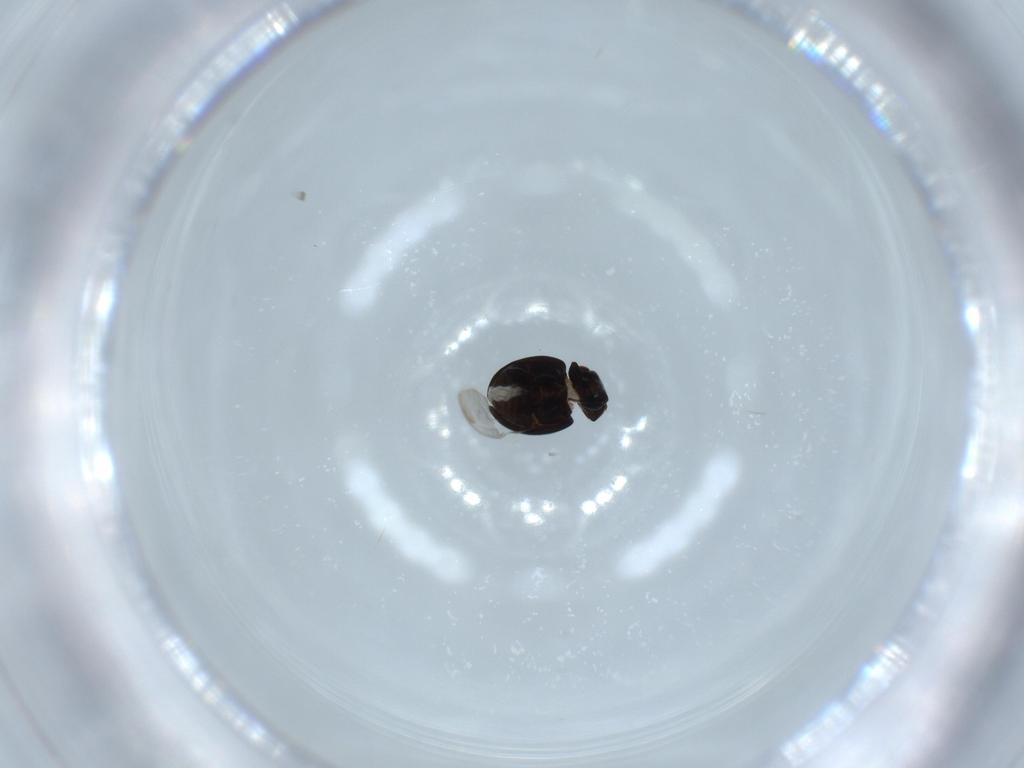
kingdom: Animalia
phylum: Arthropoda
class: Insecta
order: Coleoptera
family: Coccinellidae
